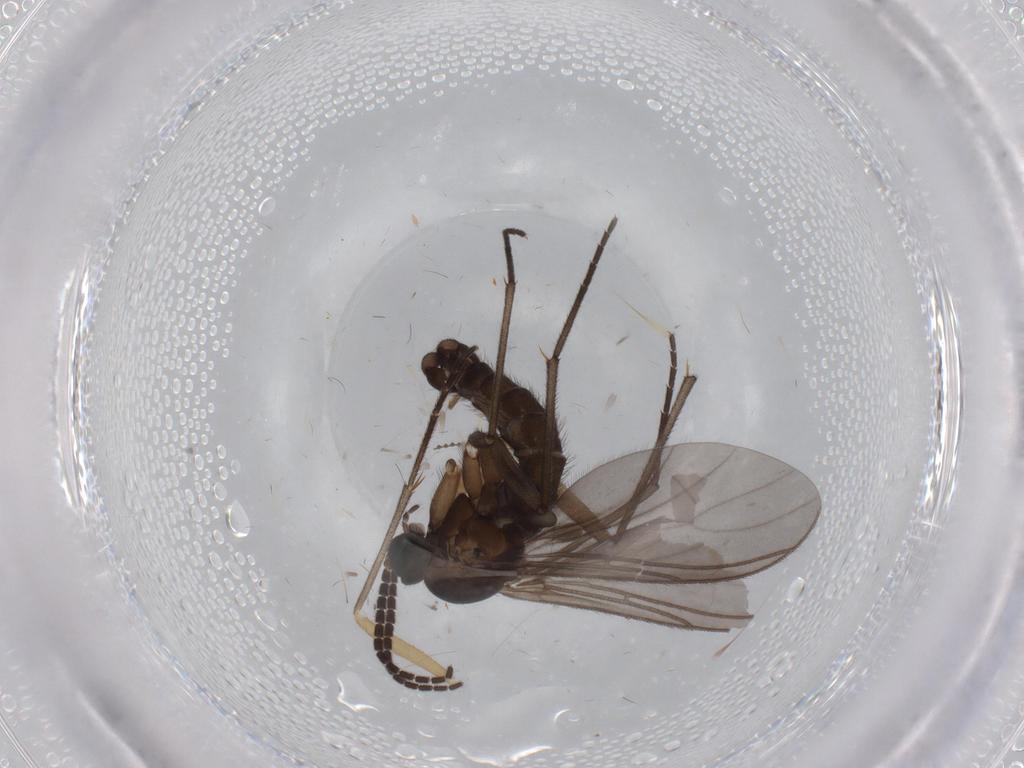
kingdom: Animalia
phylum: Arthropoda
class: Insecta
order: Diptera
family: Sciaridae
